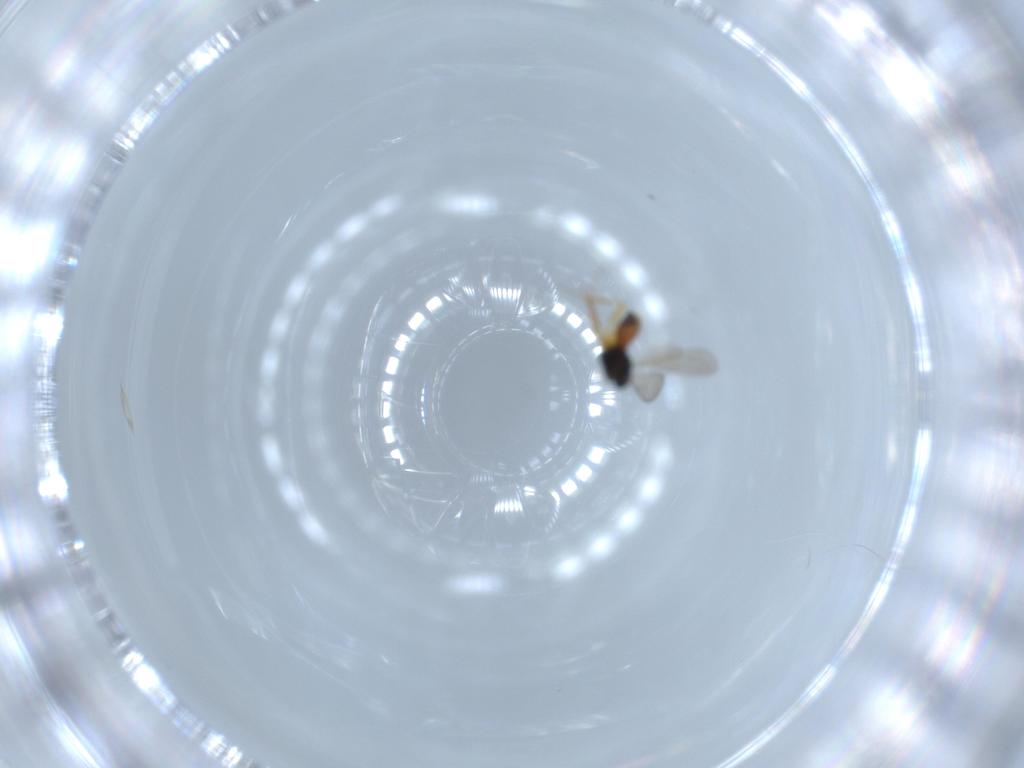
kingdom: Animalia
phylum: Arthropoda
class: Insecta
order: Hymenoptera
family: Scelionidae
